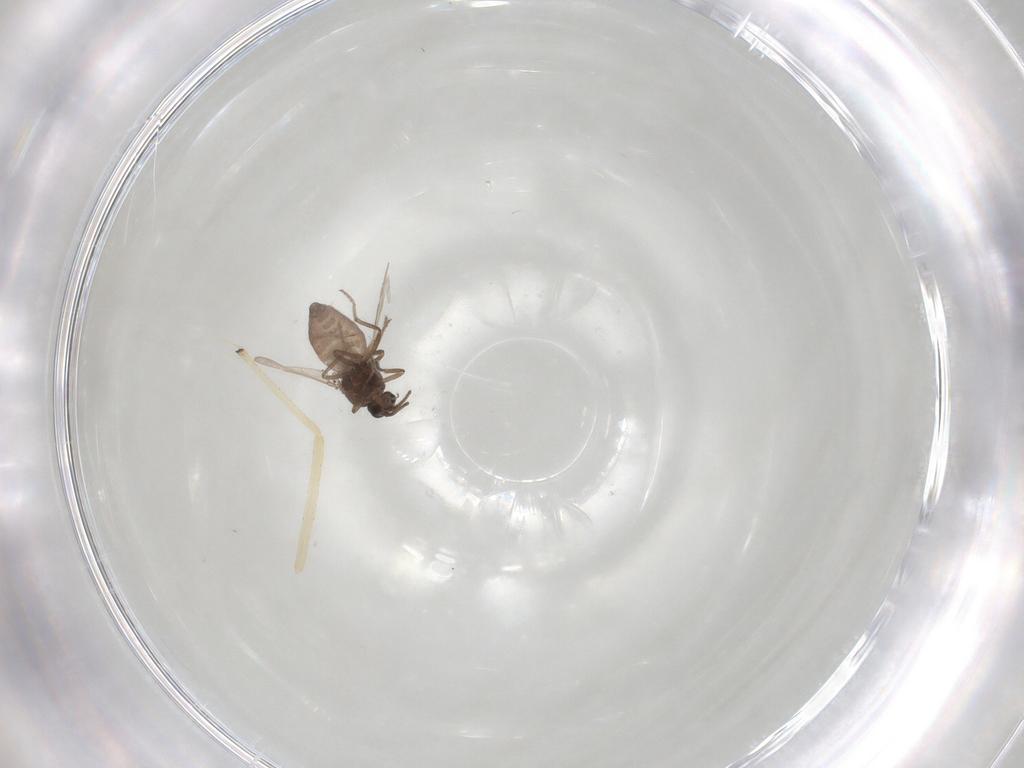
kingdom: Animalia
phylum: Arthropoda
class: Insecta
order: Diptera
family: Ceratopogonidae
